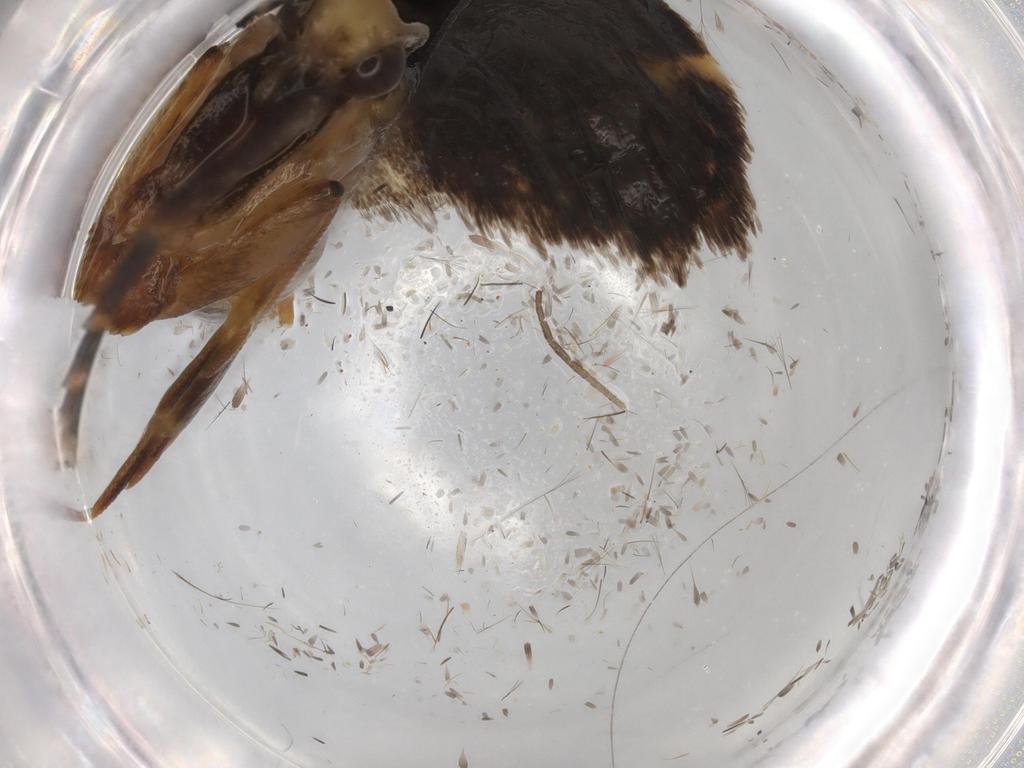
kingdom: Animalia
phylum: Arthropoda
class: Insecta
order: Lepidoptera
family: Gelechiidae
